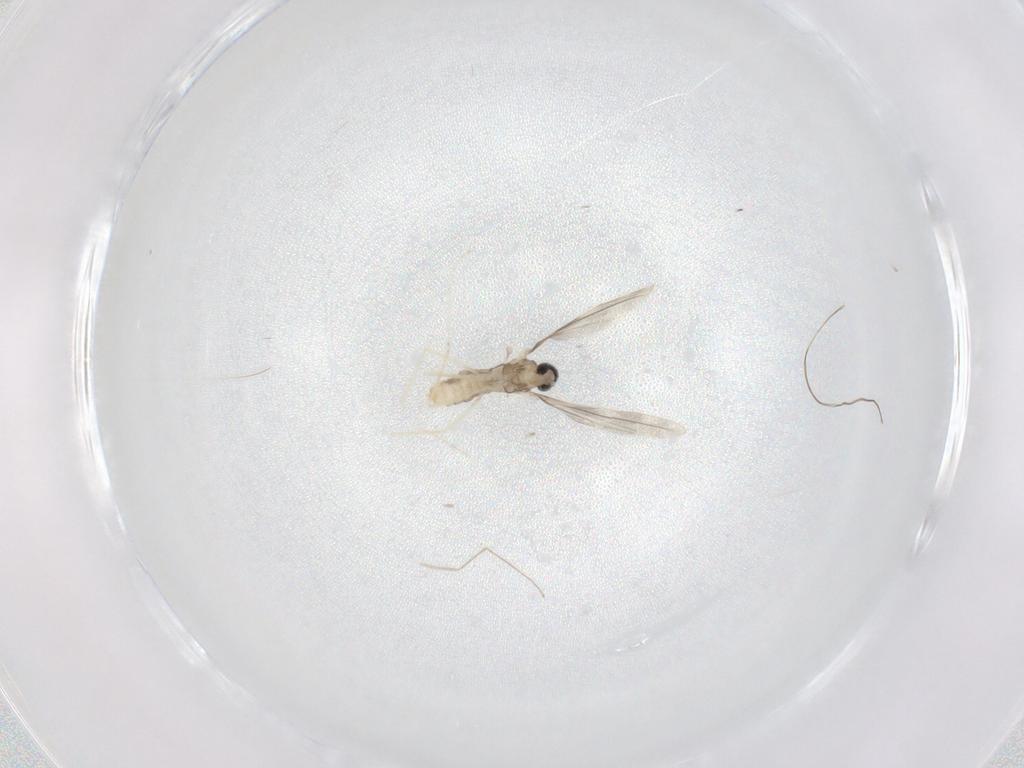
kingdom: Animalia
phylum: Arthropoda
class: Insecta
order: Diptera
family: Cecidomyiidae
